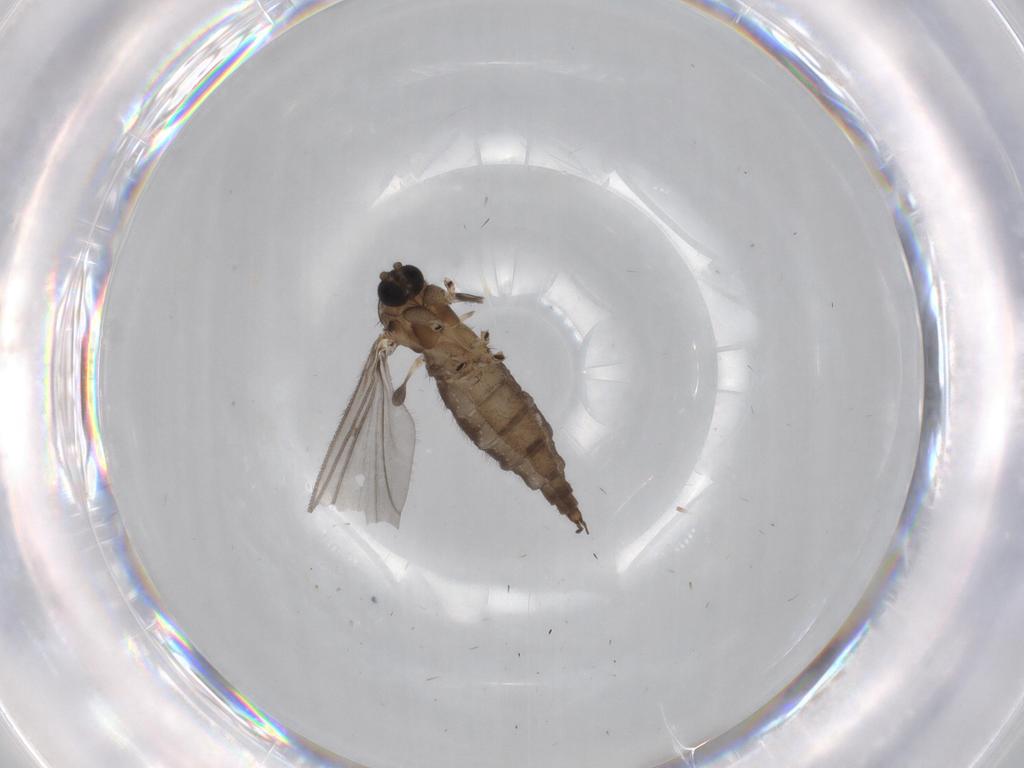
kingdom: Animalia
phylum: Arthropoda
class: Insecta
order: Diptera
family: Sciaridae
